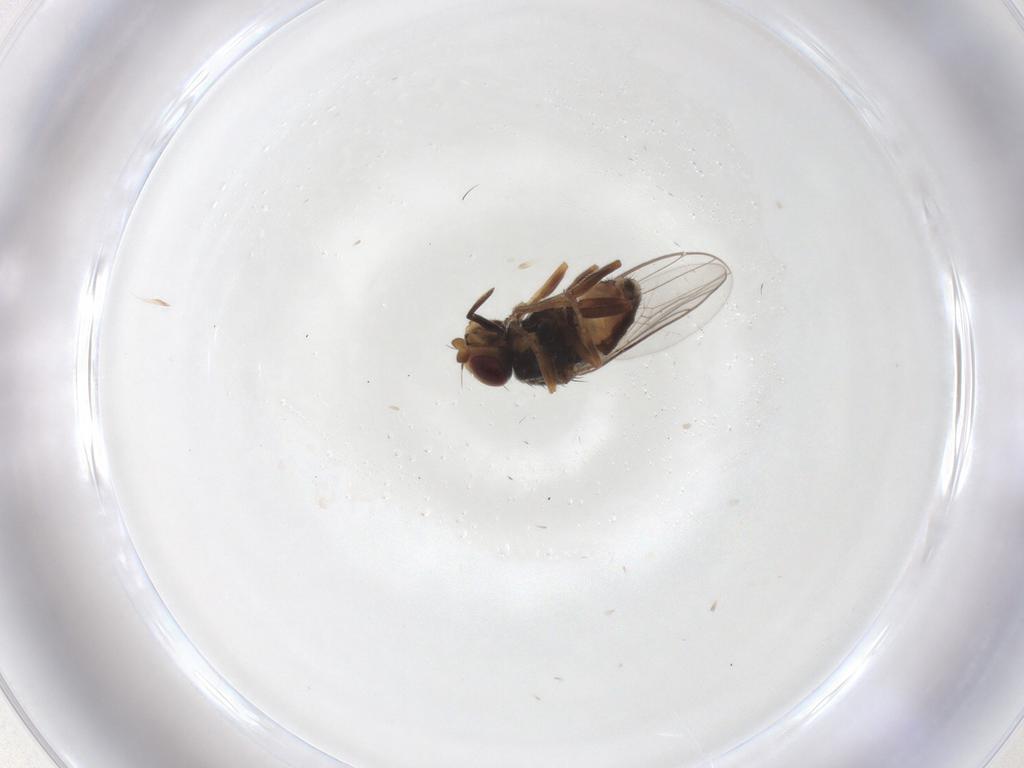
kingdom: Animalia
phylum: Arthropoda
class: Insecta
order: Diptera
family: Chloropidae
